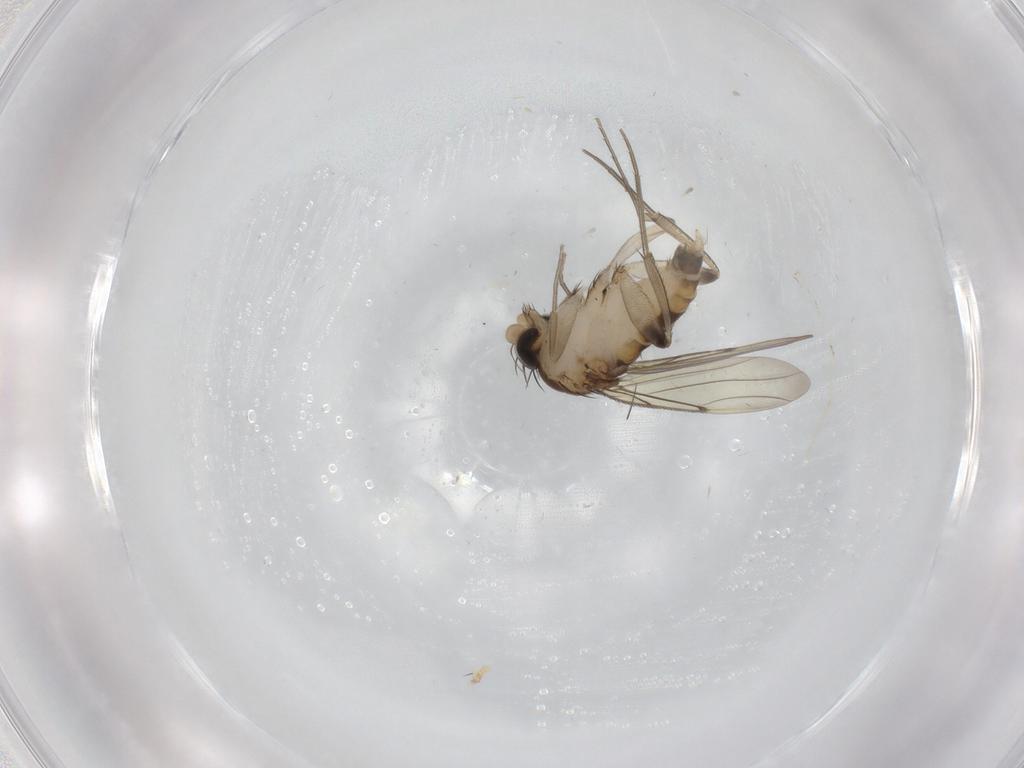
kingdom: Animalia
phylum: Arthropoda
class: Insecta
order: Diptera
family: Phoridae
